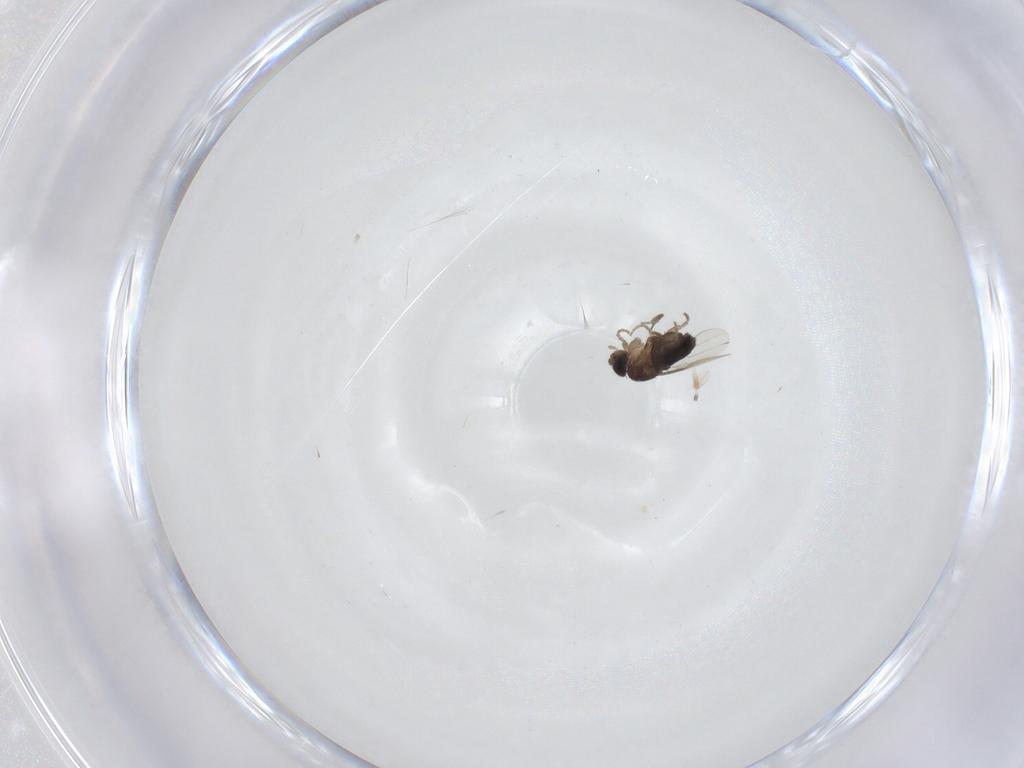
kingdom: Animalia
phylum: Arthropoda
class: Insecta
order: Diptera
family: Phoridae
